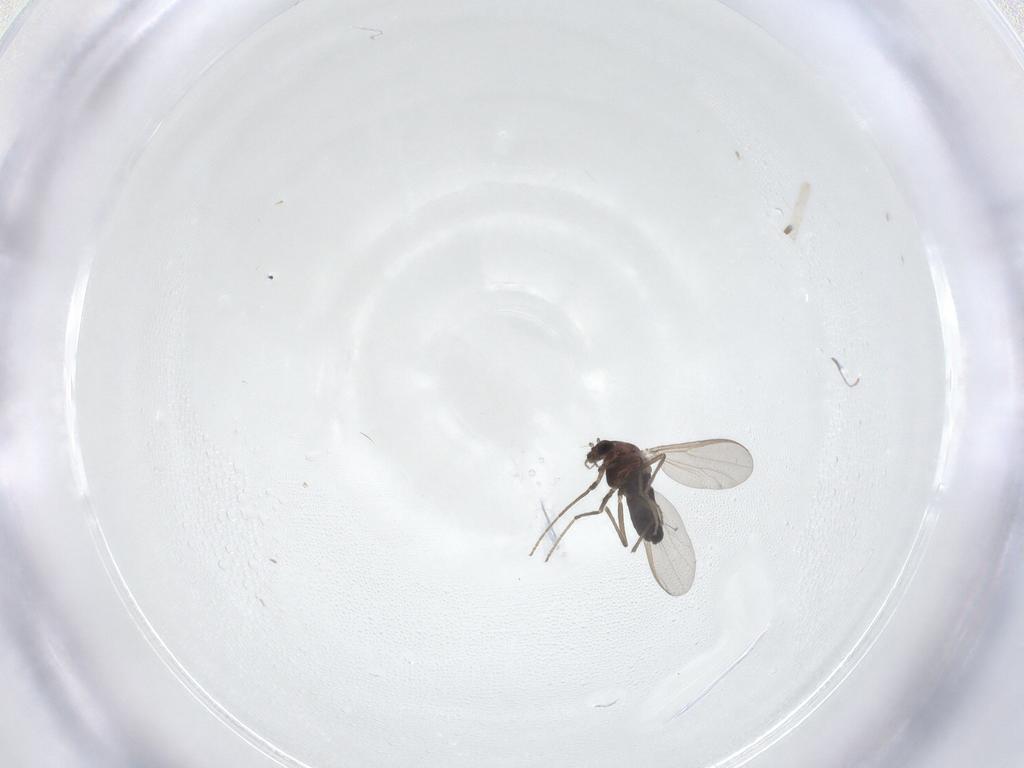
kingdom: Animalia
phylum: Arthropoda
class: Insecta
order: Diptera
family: Chironomidae
